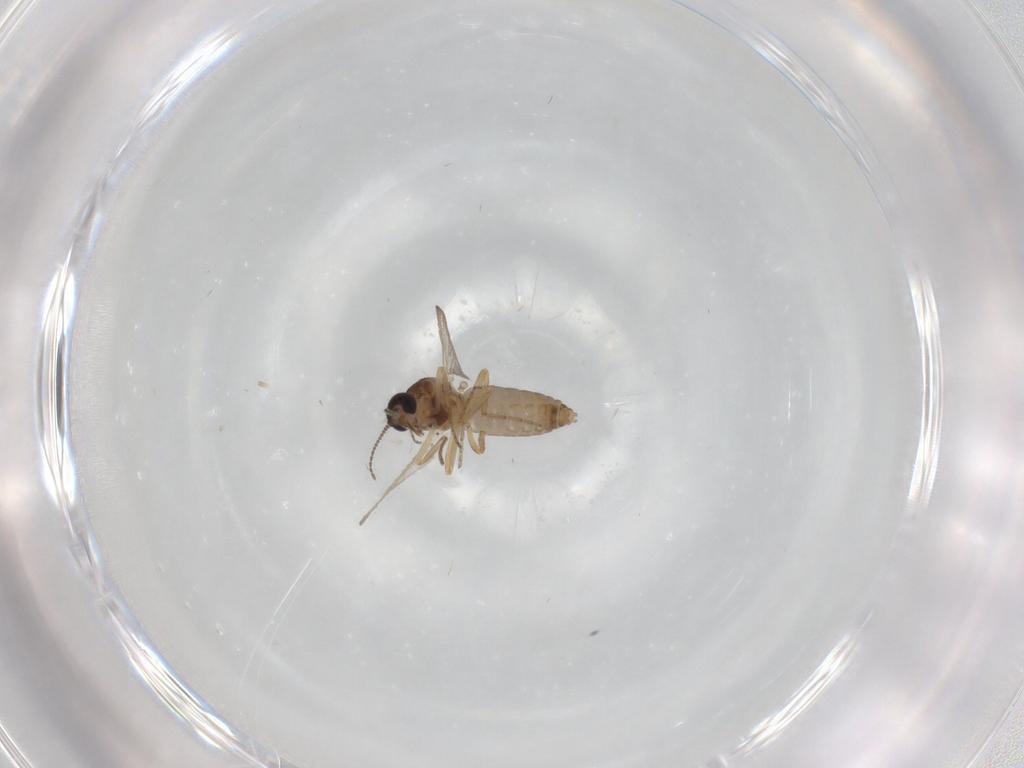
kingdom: Animalia
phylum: Arthropoda
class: Insecta
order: Diptera
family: Ceratopogonidae
